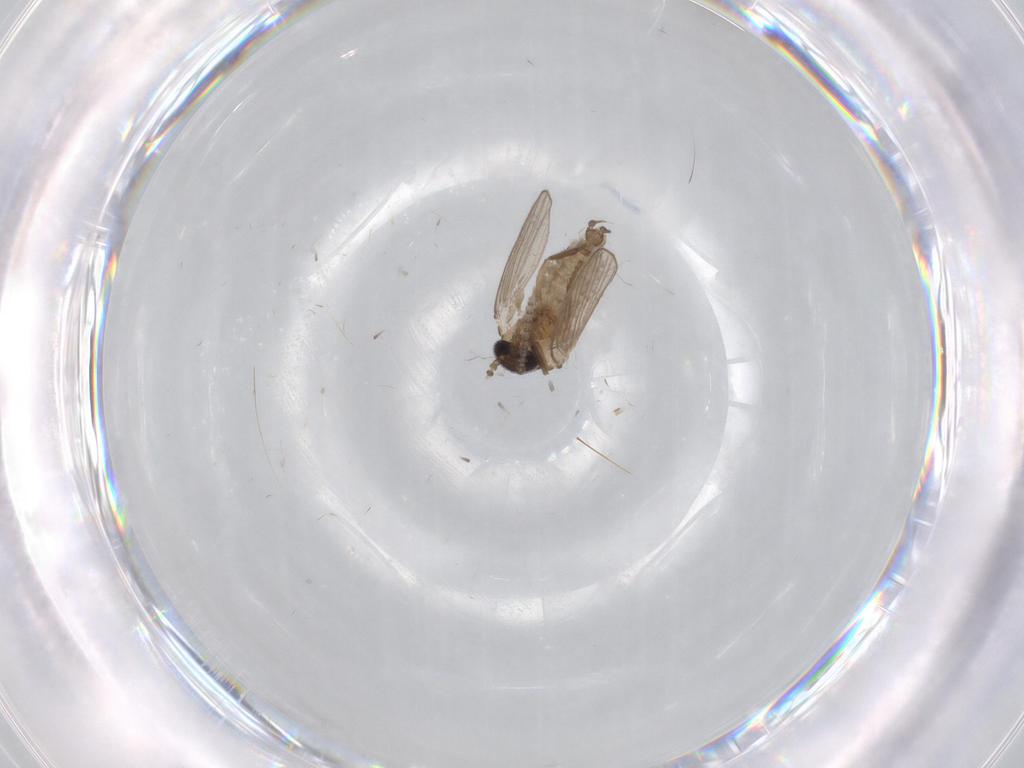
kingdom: Animalia
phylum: Arthropoda
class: Insecta
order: Diptera
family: Psychodidae
